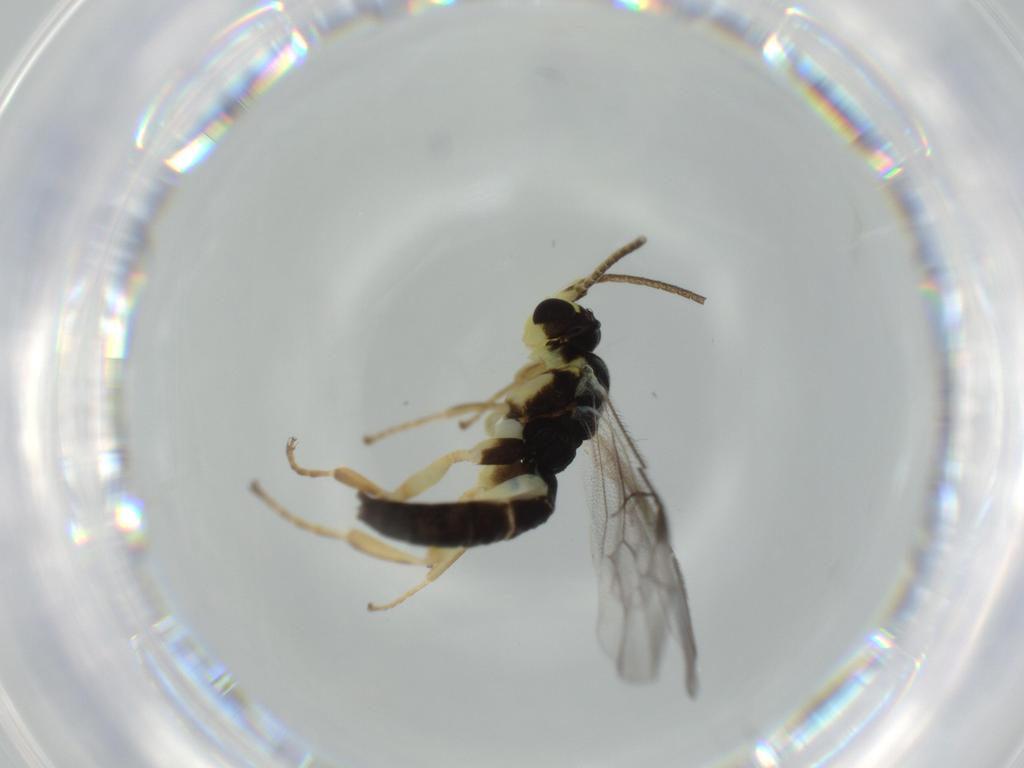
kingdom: Animalia
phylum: Arthropoda
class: Insecta
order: Hymenoptera
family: Ichneumonidae
